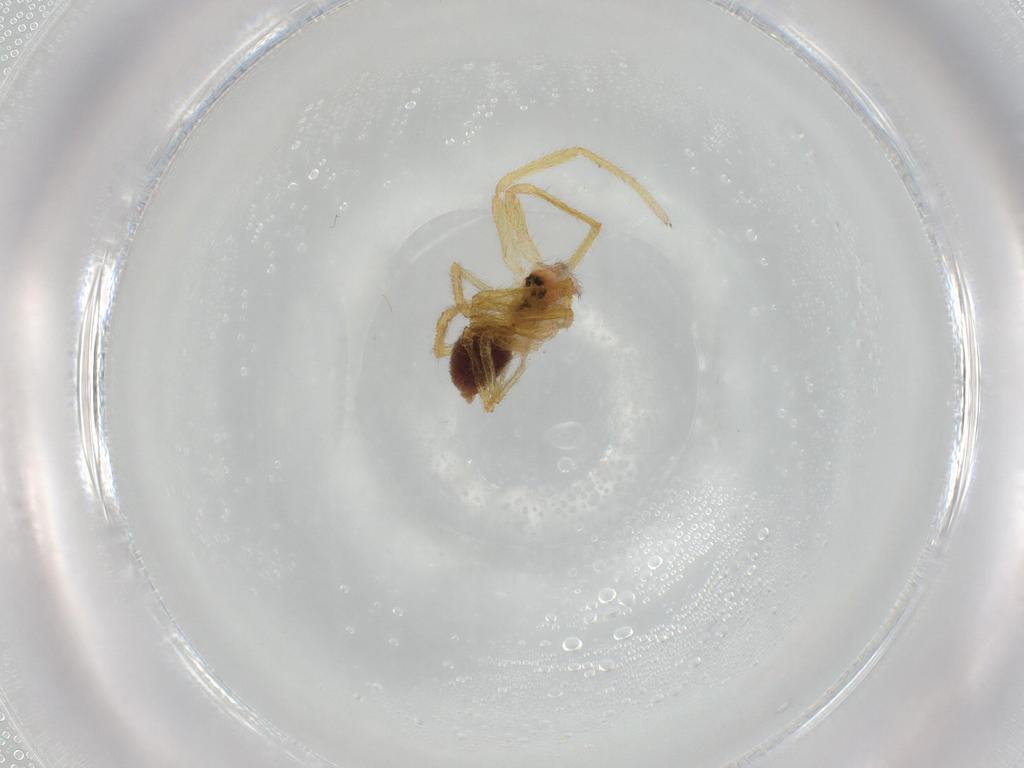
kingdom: Animalia
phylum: Arthropoda
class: Arachnida
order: Araneae
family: Linyphiidae
